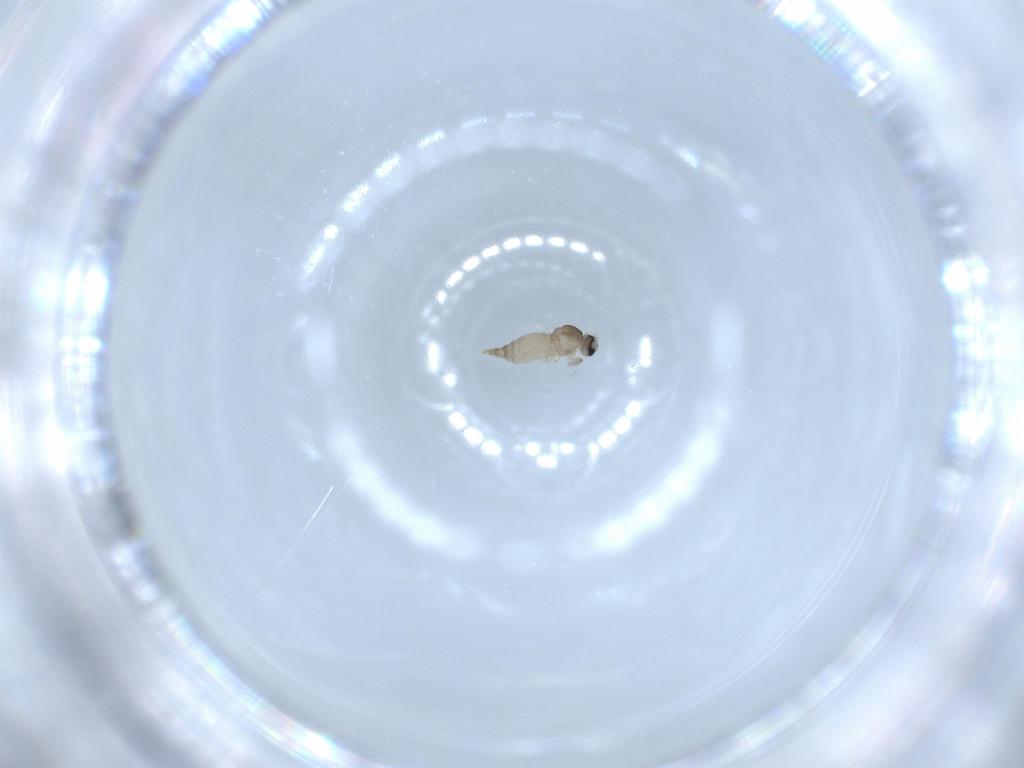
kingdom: Animalia
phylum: Arthropoda
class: Insecta
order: Diptera
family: Cecidomyiidae
